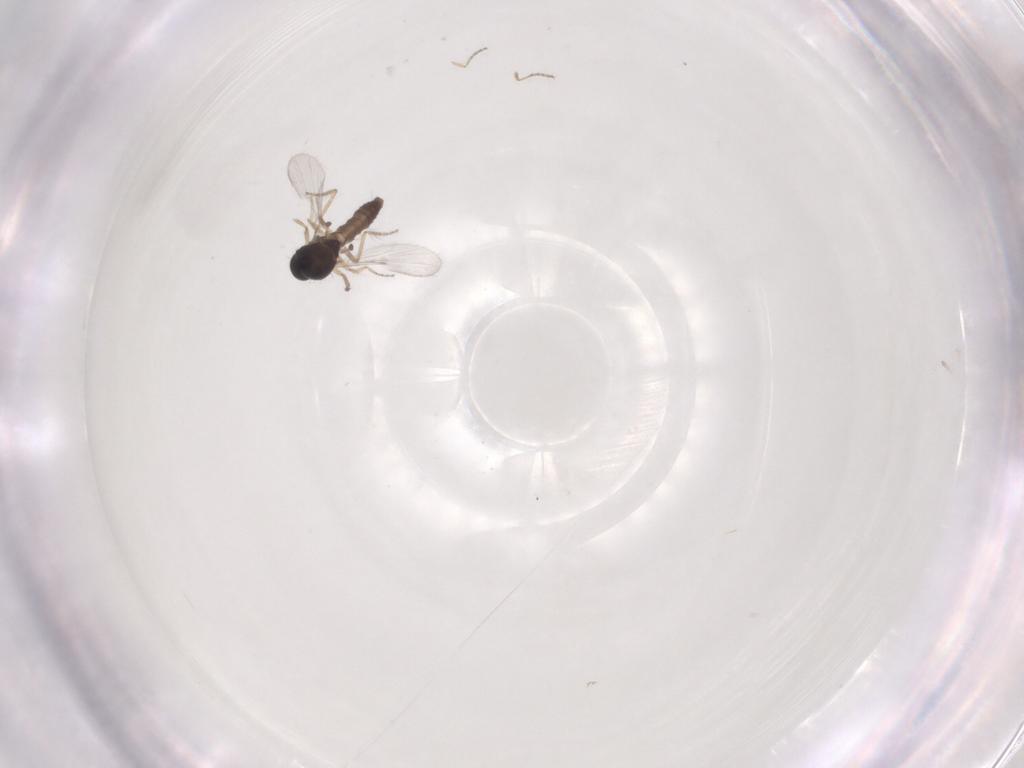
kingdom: Animalia
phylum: Arthropoda
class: Insecta
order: Diptera
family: Ceratopogonidae
